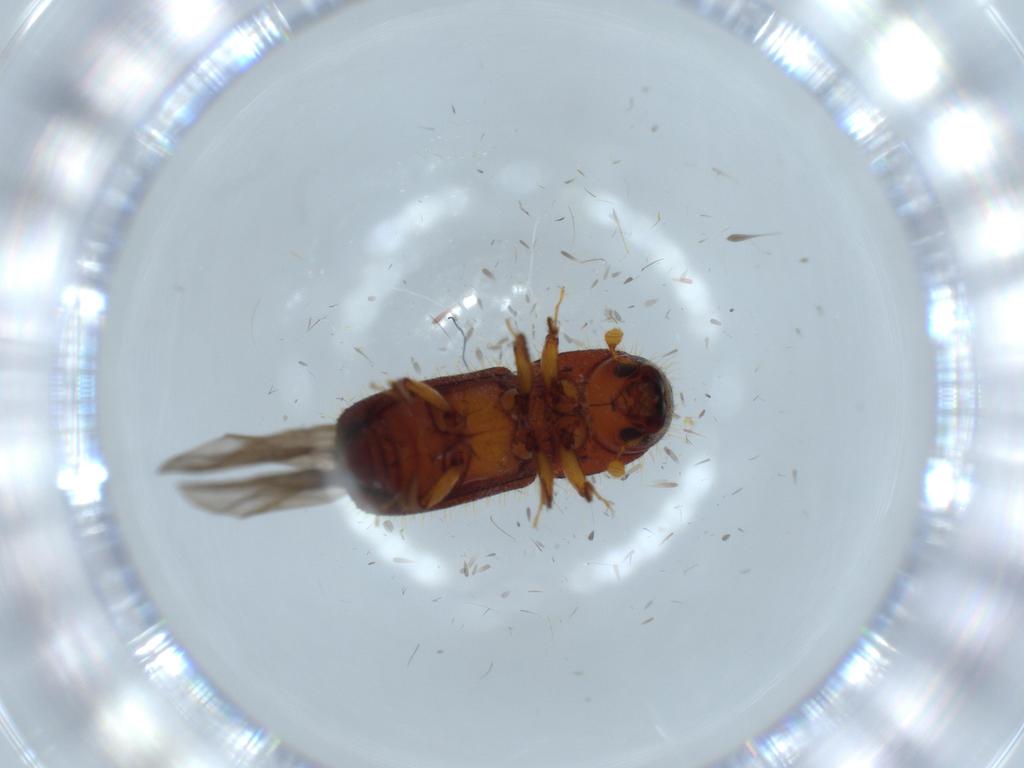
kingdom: Animalia
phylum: Arthropoda
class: Insecta
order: Coleoptera
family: Curculionidae
